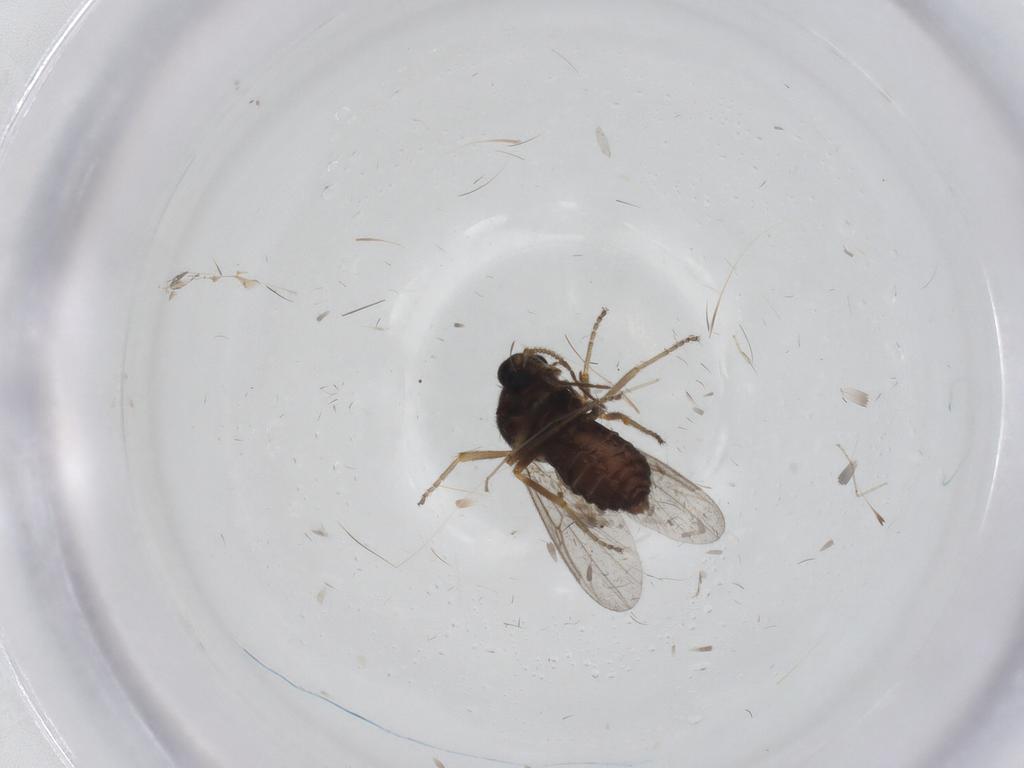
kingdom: Animalia
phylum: Arthropoda
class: Insecta
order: Diptera
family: Ceratopogonidae
